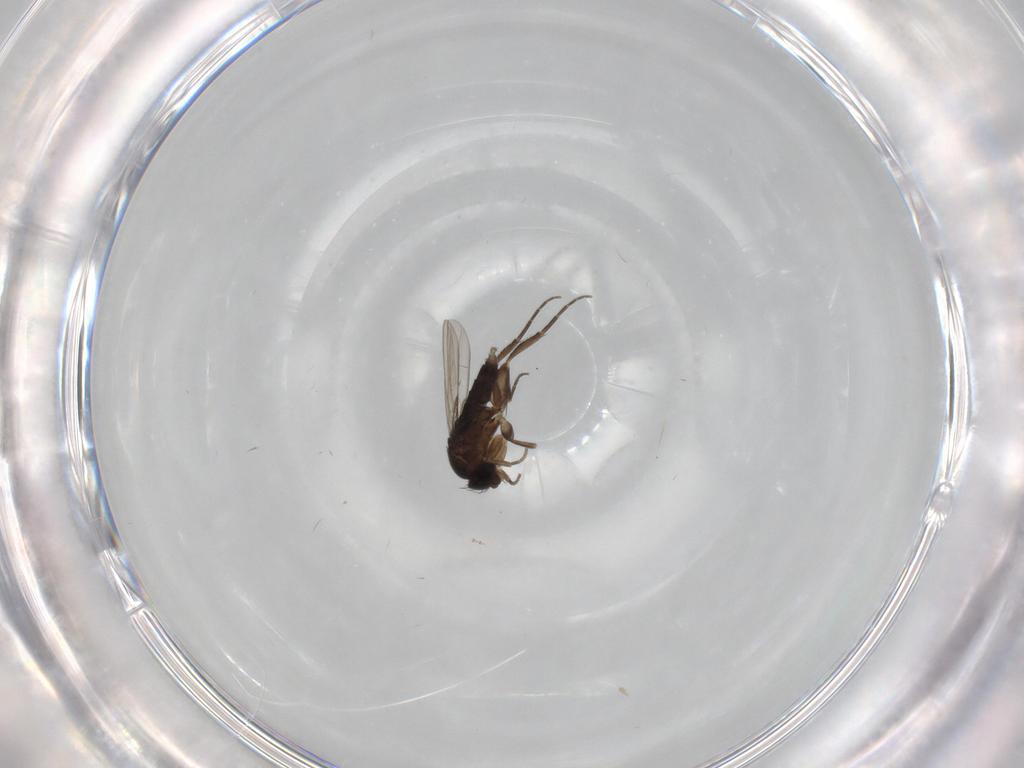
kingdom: Animalia
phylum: Arthropoda
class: Insecta
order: Diptera
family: Cecidomyiidae
